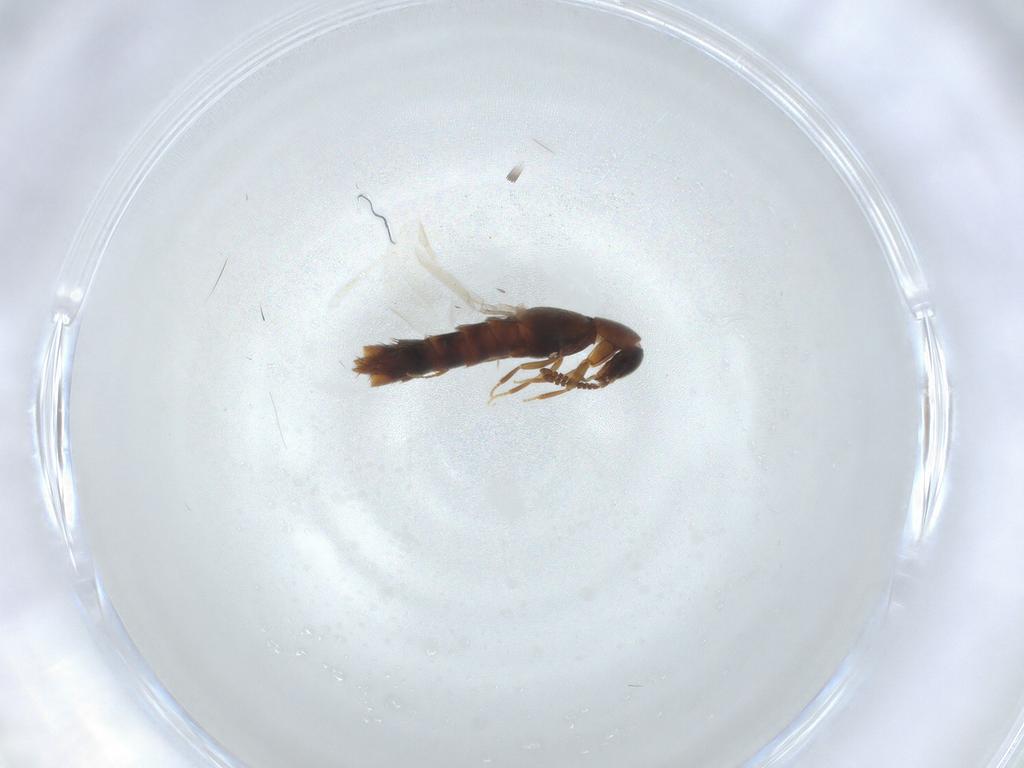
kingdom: Animalia
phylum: Arthropoda
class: Insecta
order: Coleoptera
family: Staphylinidae
